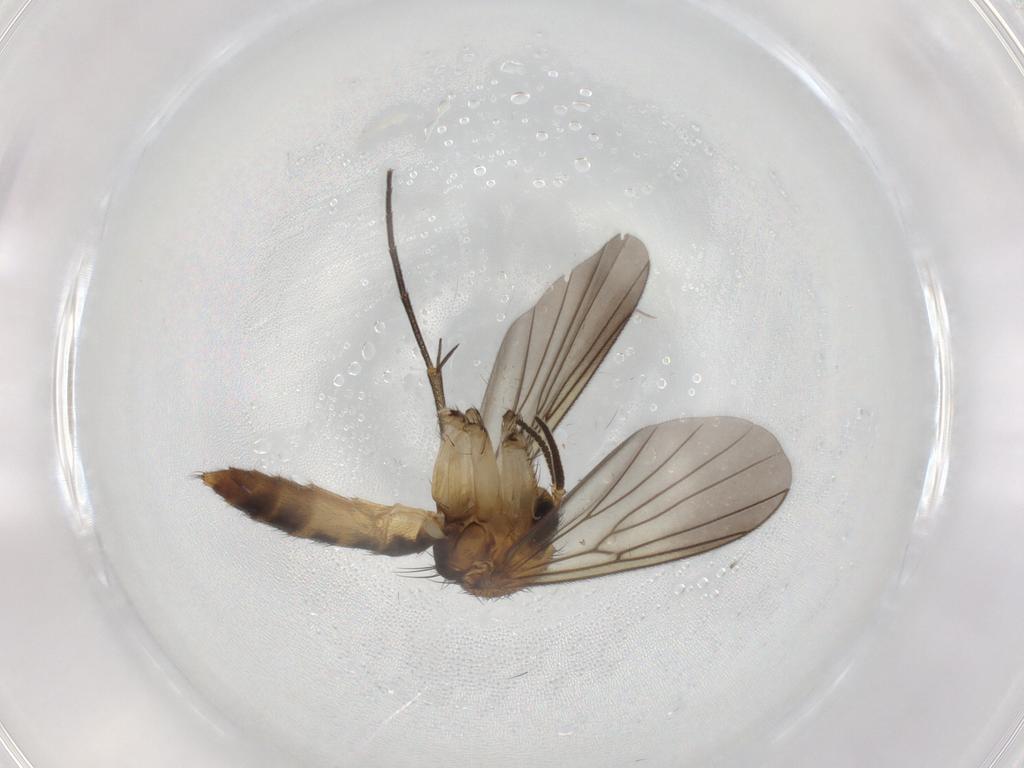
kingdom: Animalia
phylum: Arthropoda
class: Insecta
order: Diptera
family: Mycetophilidae
